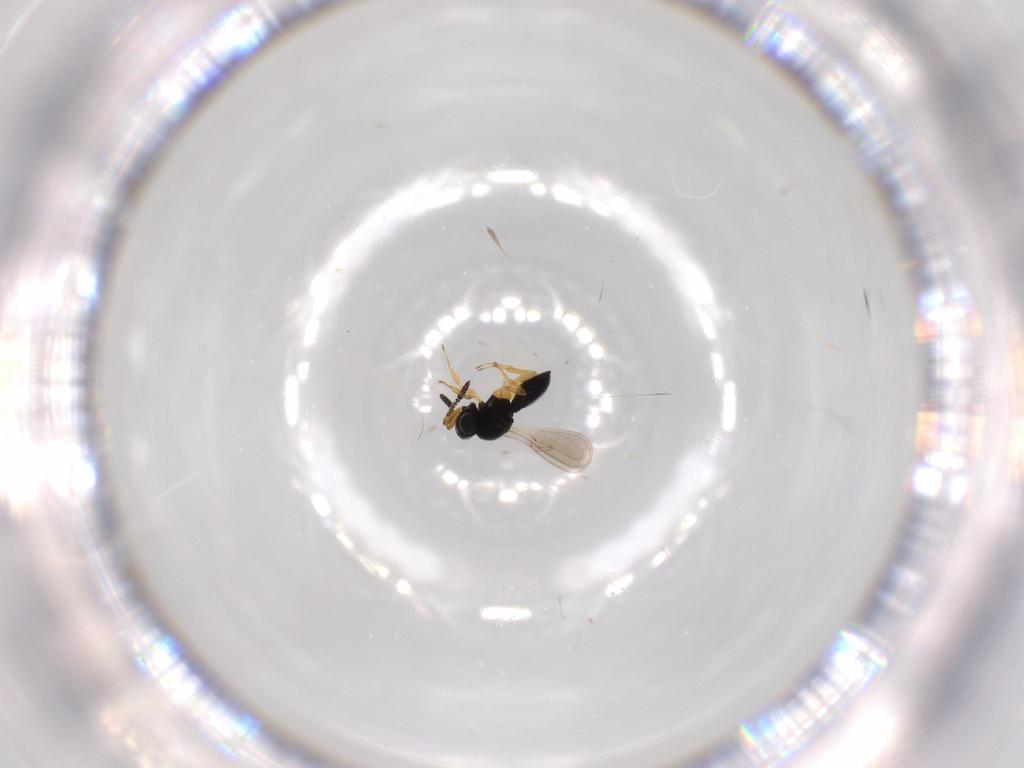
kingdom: Animalia
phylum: Arthropoda
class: Insecta
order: Hymenoptera
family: Scelionidae
